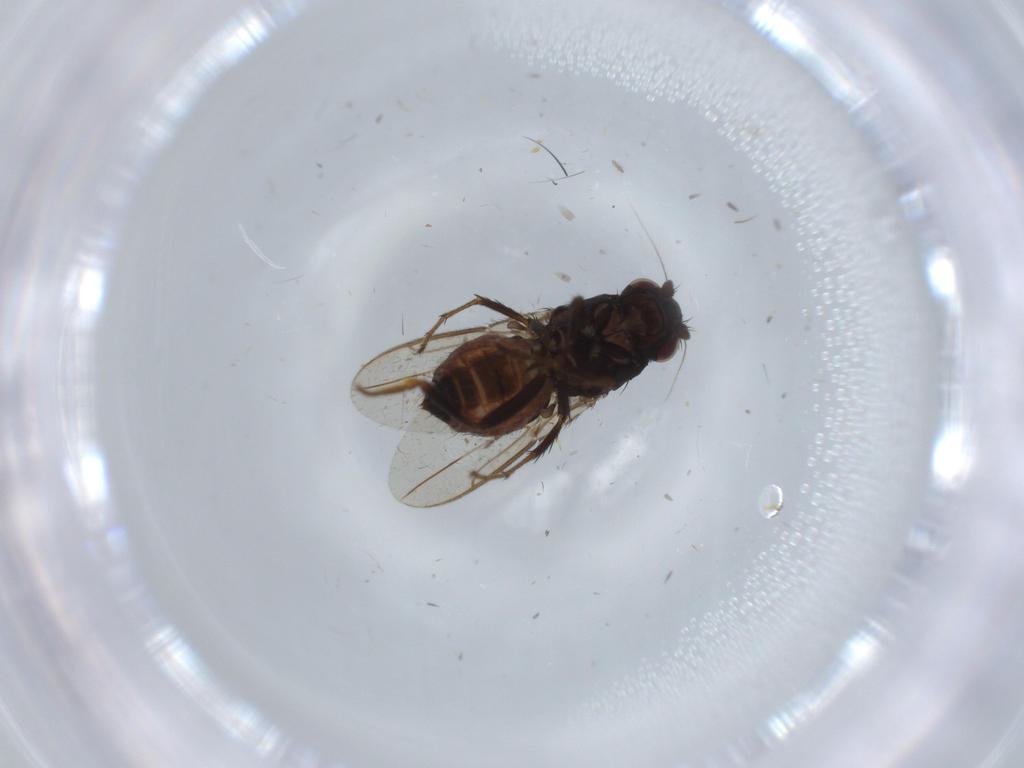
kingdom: Animalia
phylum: Arthropoda
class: Insecta
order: Diptera
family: Sphaeroceridae
